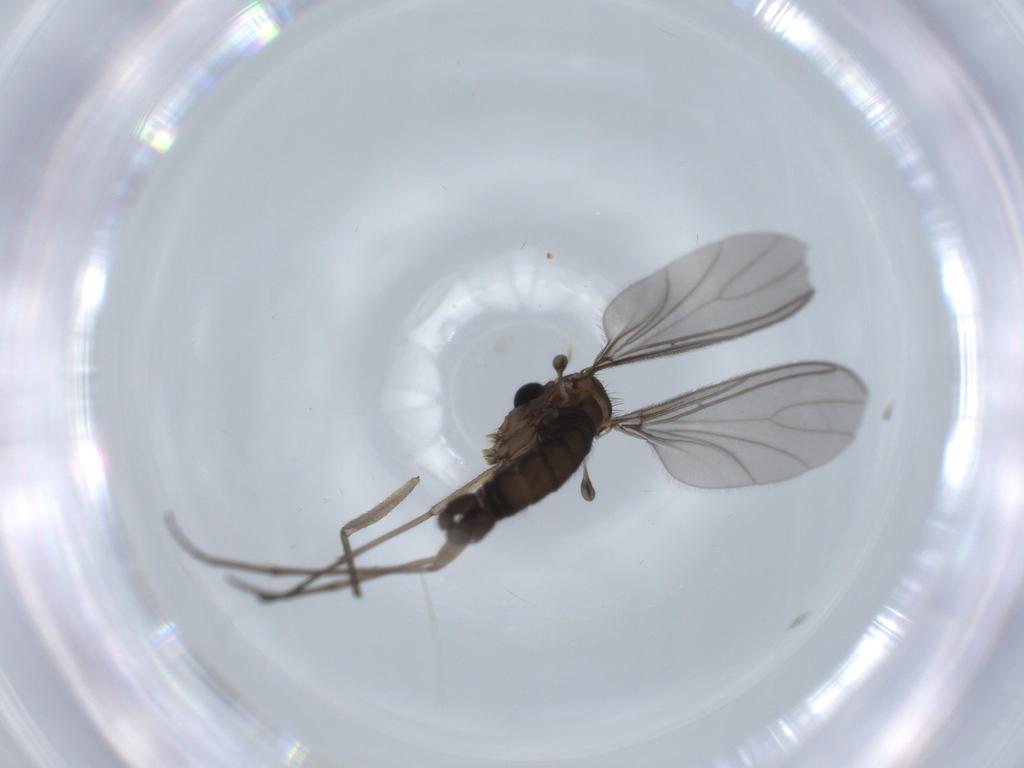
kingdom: Animalia
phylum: Arthropoda
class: Insecta
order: Diptera
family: Sciaridae
